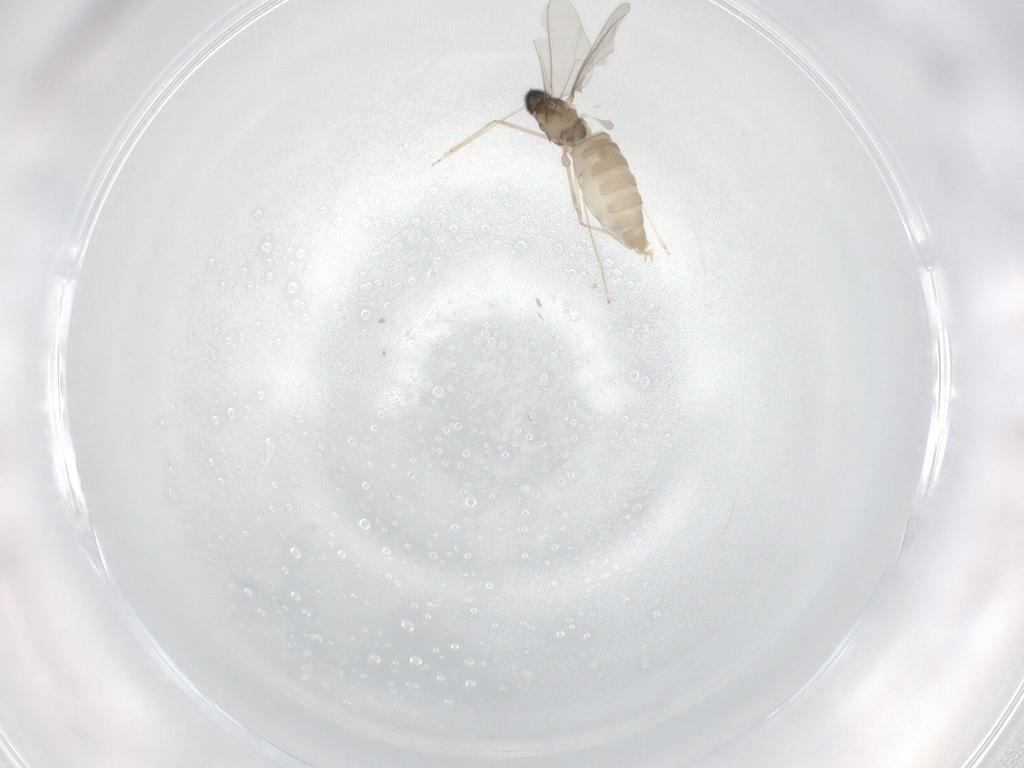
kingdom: Animalia
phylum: Arthropoda
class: Insecta
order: Diptera
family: Cecidomyiidae
